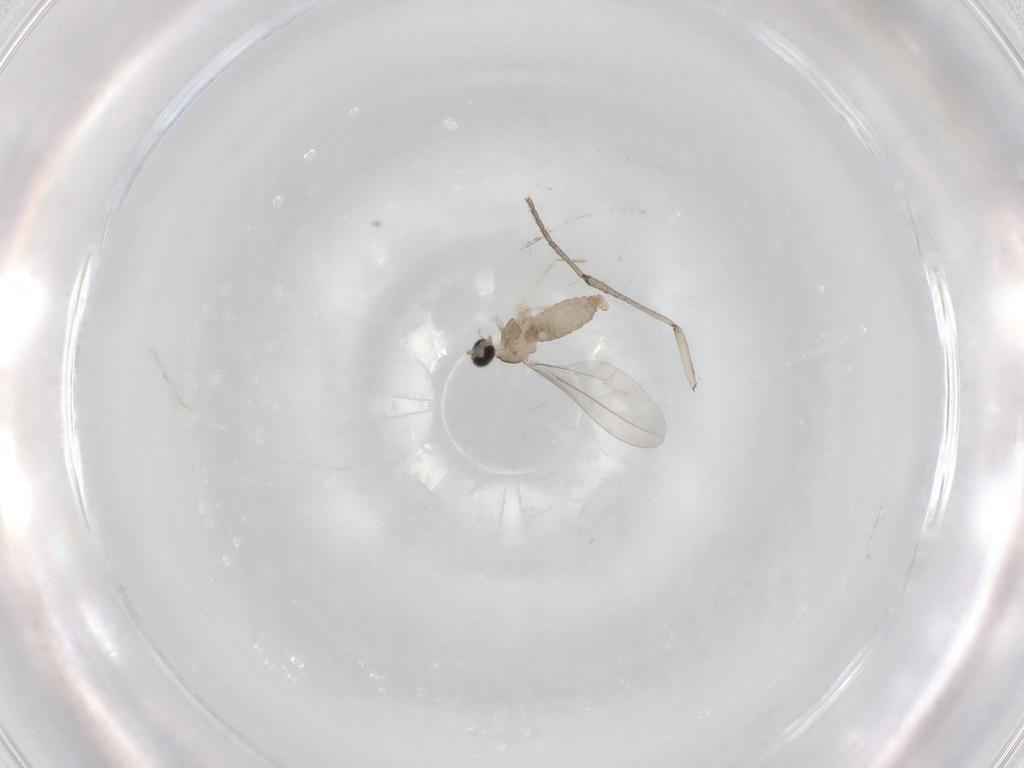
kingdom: Animalia
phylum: Arthropoda
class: Insecta
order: Diptera
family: Psychodidae
